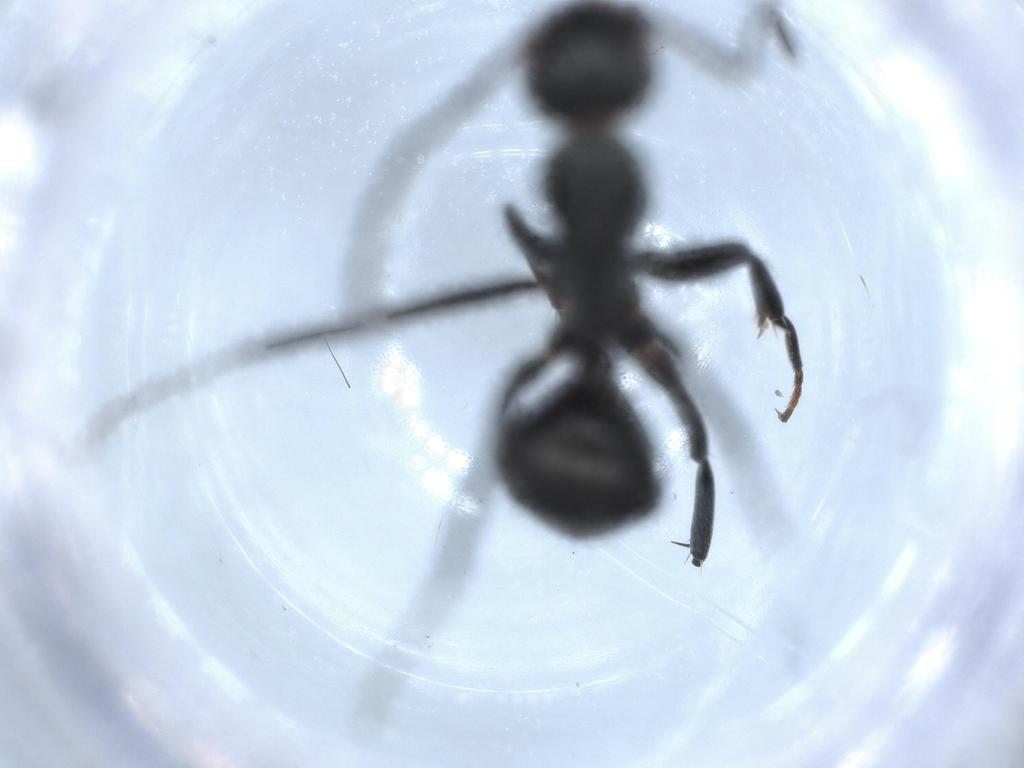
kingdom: Animalia
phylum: Arthropoda
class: Insecta
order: Hymenoptera
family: Formicidae
